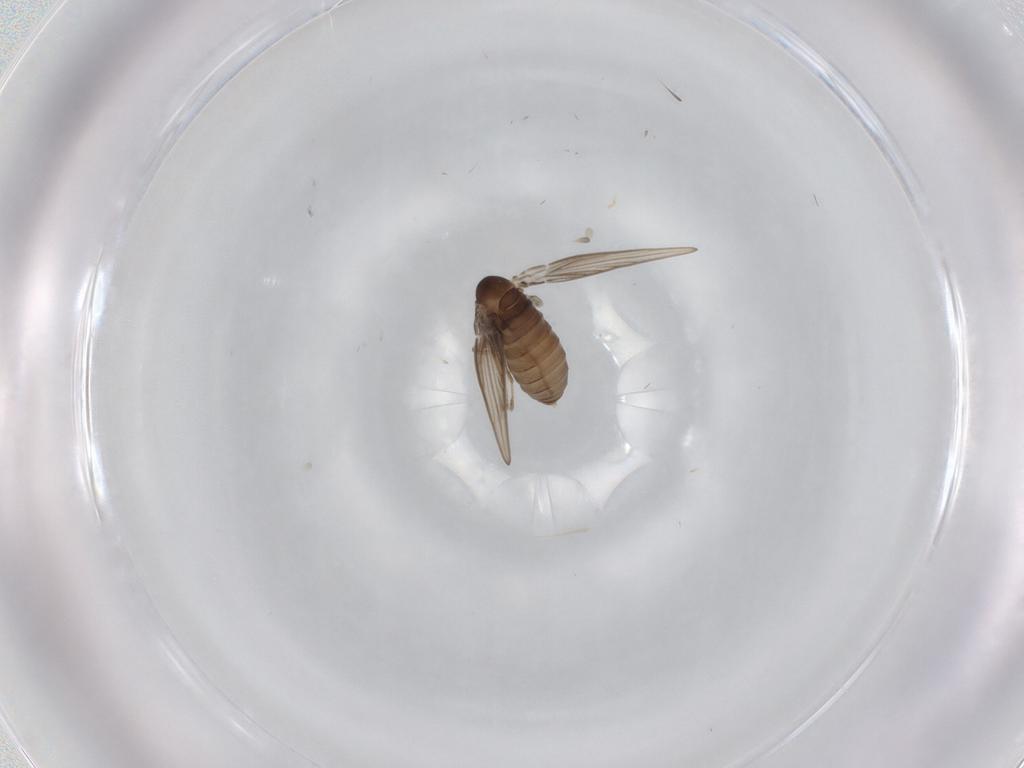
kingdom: Animalia
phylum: Arthropoda
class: Insecta
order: Diptera
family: Psychodidae
